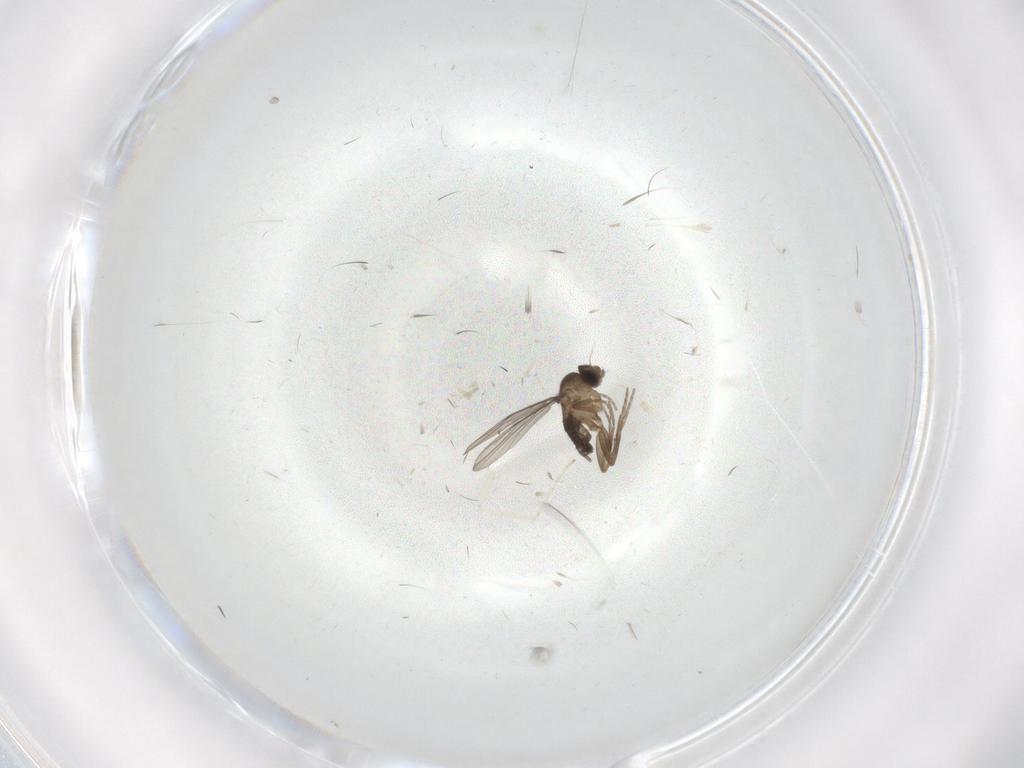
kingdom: Animalia
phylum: Arthropoda
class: Insecta
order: Diptera
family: Phoridae
